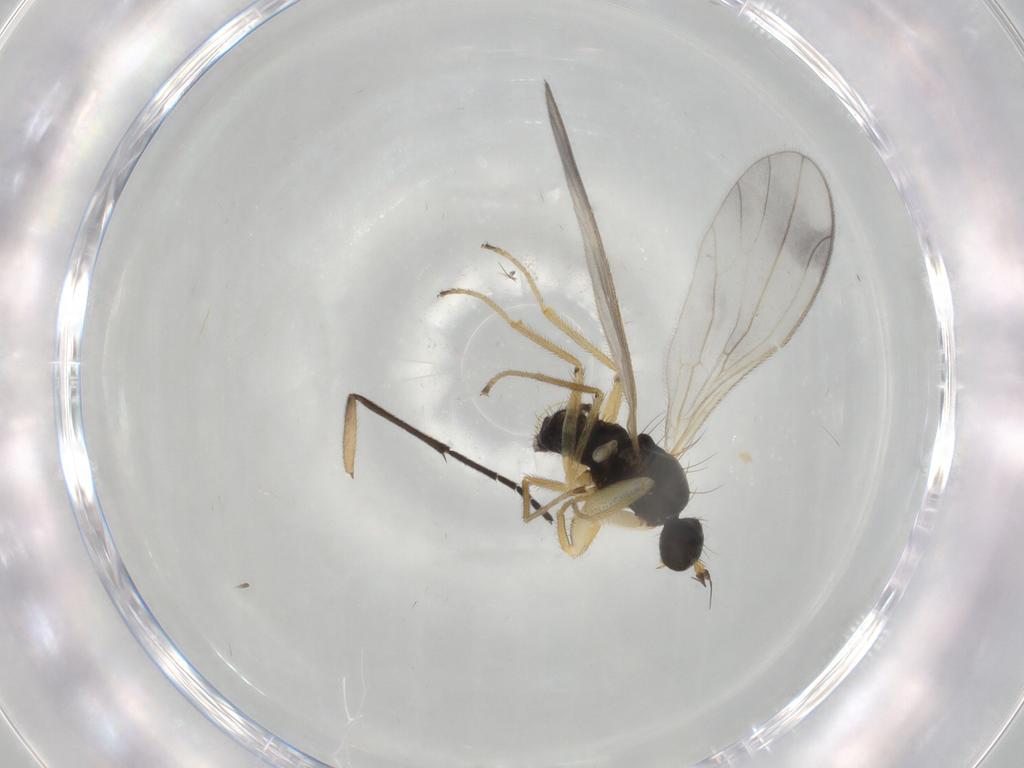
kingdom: Animalia
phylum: Arthropoda
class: Insecta
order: Diptera
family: Empididae
